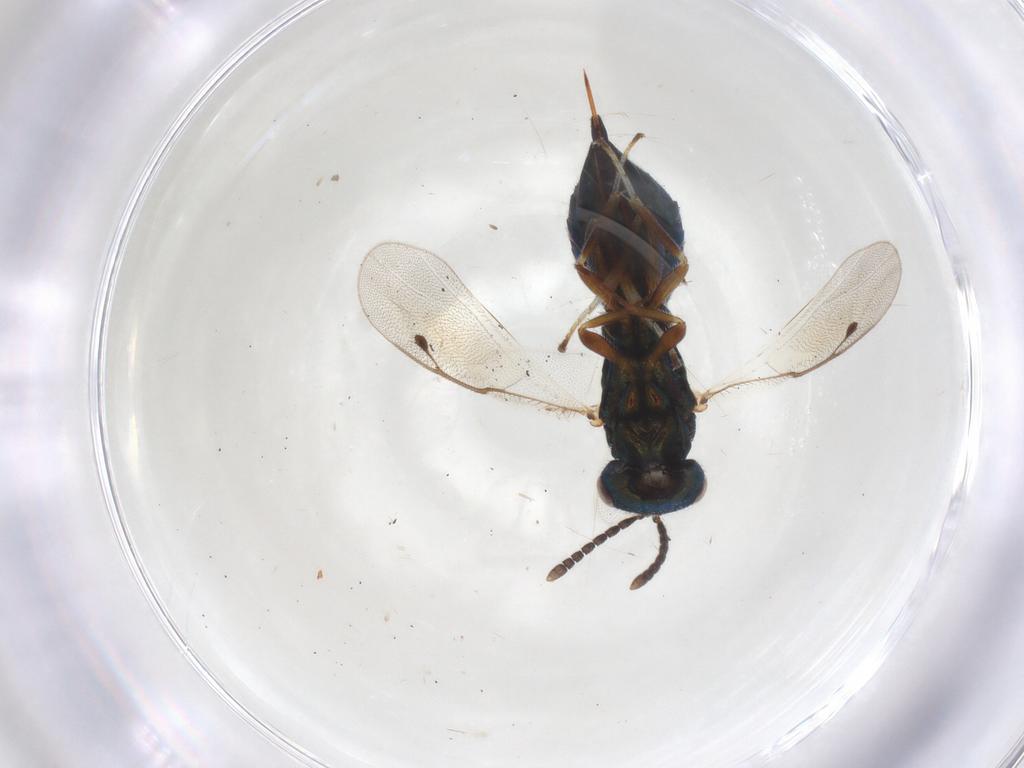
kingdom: Animalia
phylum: Arthropoda
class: Insecta
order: Hymenoptera
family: Pteromalidae
